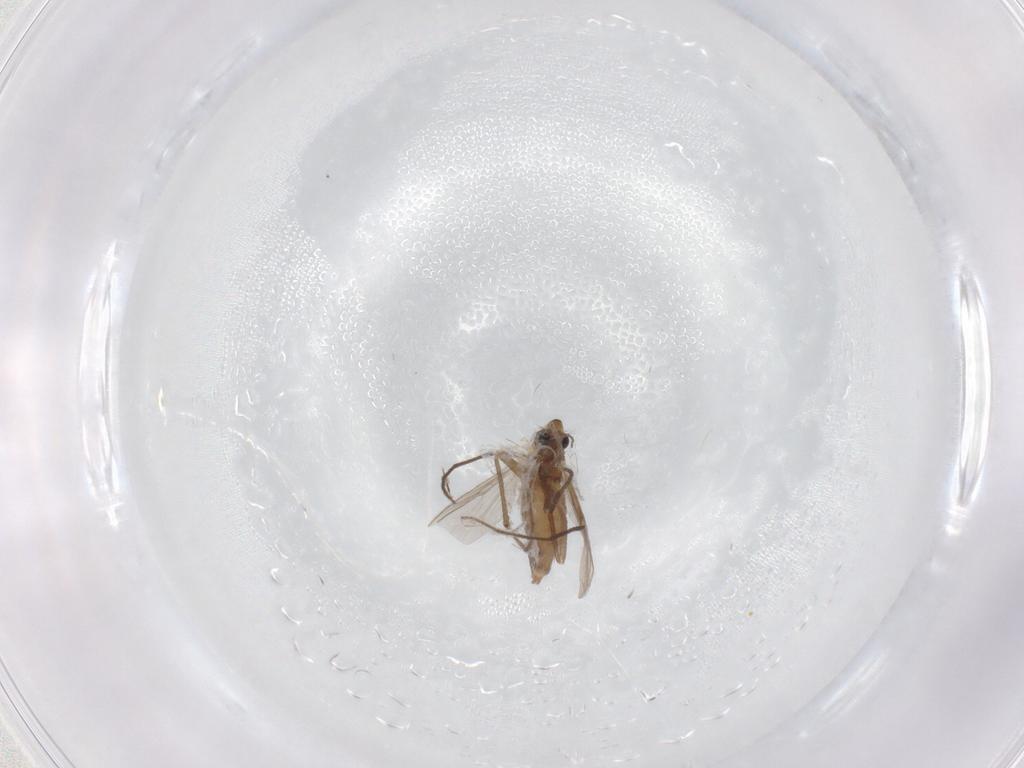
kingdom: Animalia
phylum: Arthropoda
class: Insecta
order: Diptera
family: Chironomidae
